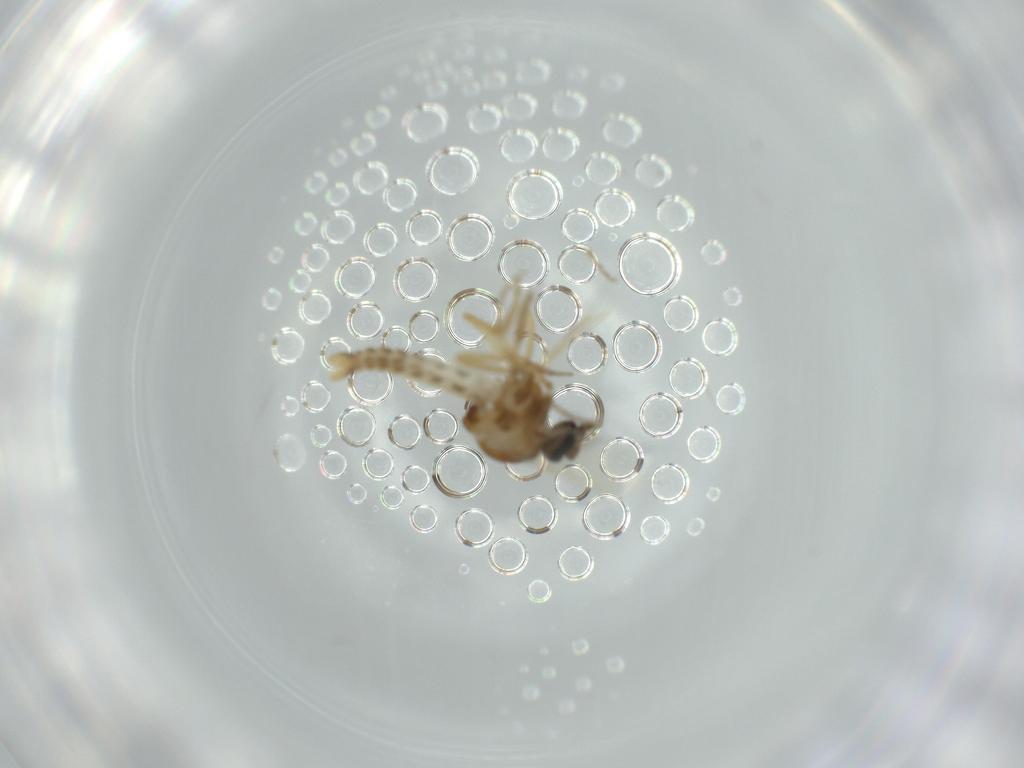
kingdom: Animalia
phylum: Arthropoda
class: Insecta
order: Diptera
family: Ceratopogonidae
